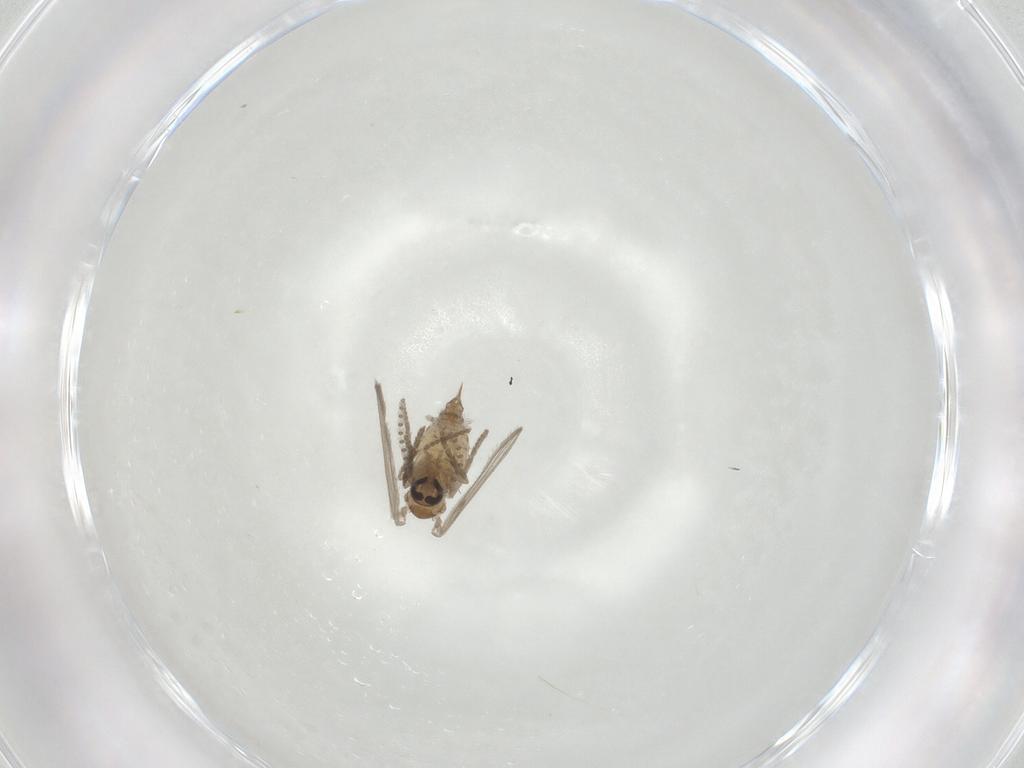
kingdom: Animalia
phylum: Arthropoda
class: Insecta
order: Diptera
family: Psychodidae
